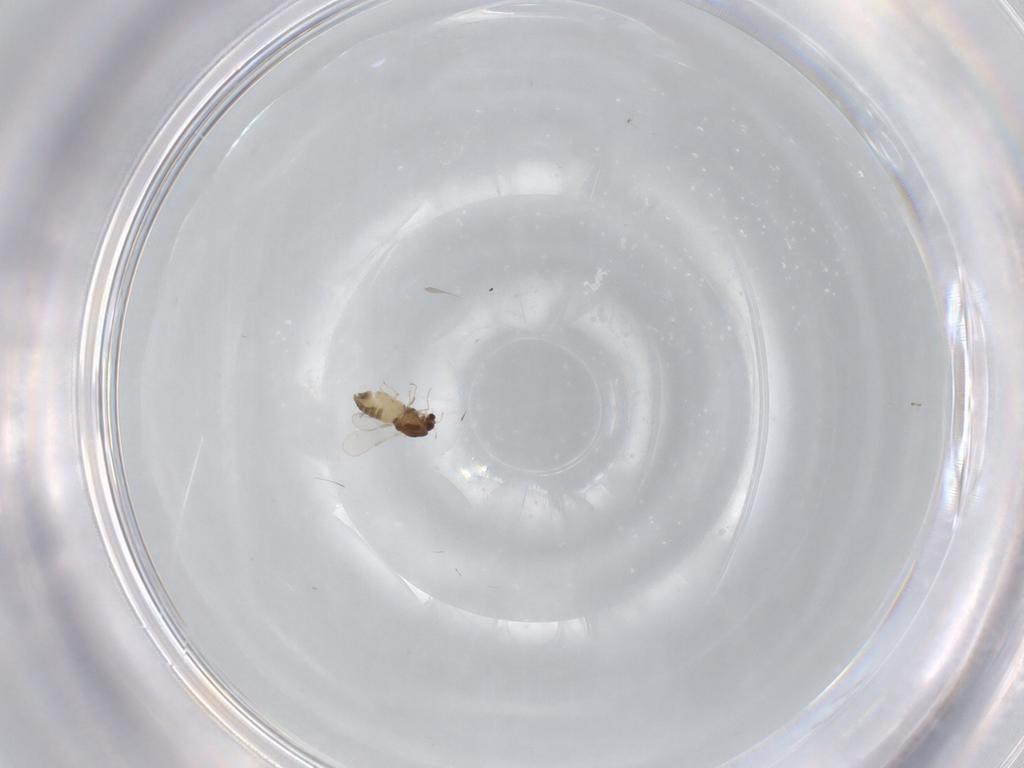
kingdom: Animalia
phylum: Arthropoda
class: Insecta
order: Diptera
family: Chironomidae
